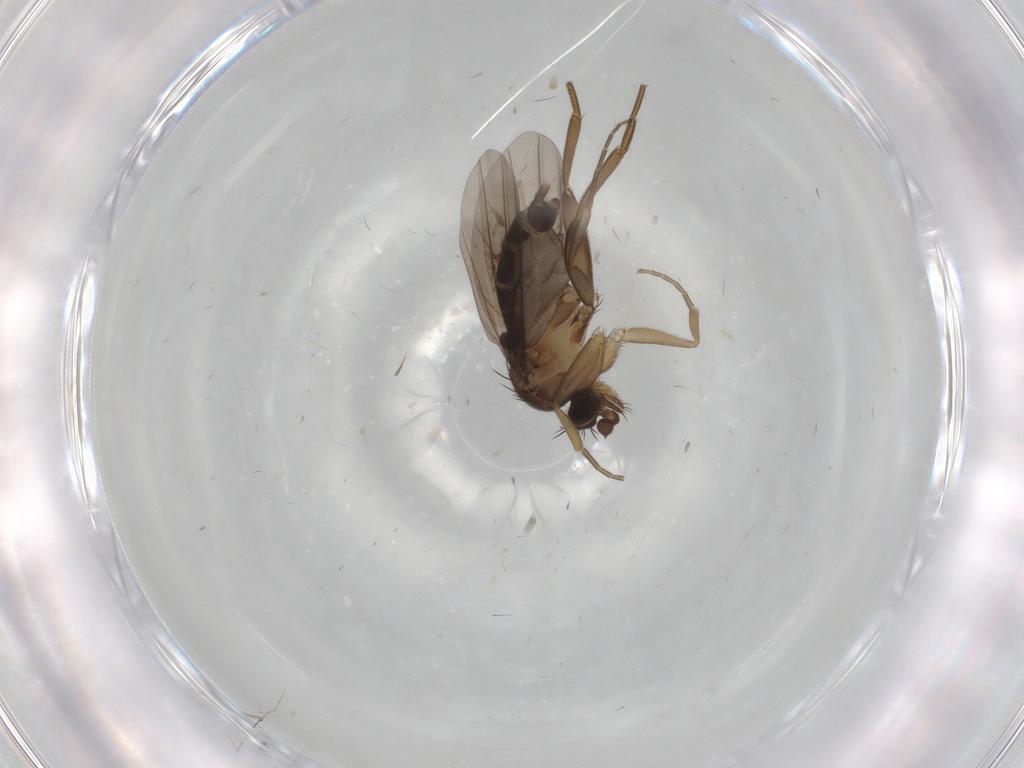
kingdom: Animalia
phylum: Arthropoda
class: Insecta
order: Diptera
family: Phoridae
